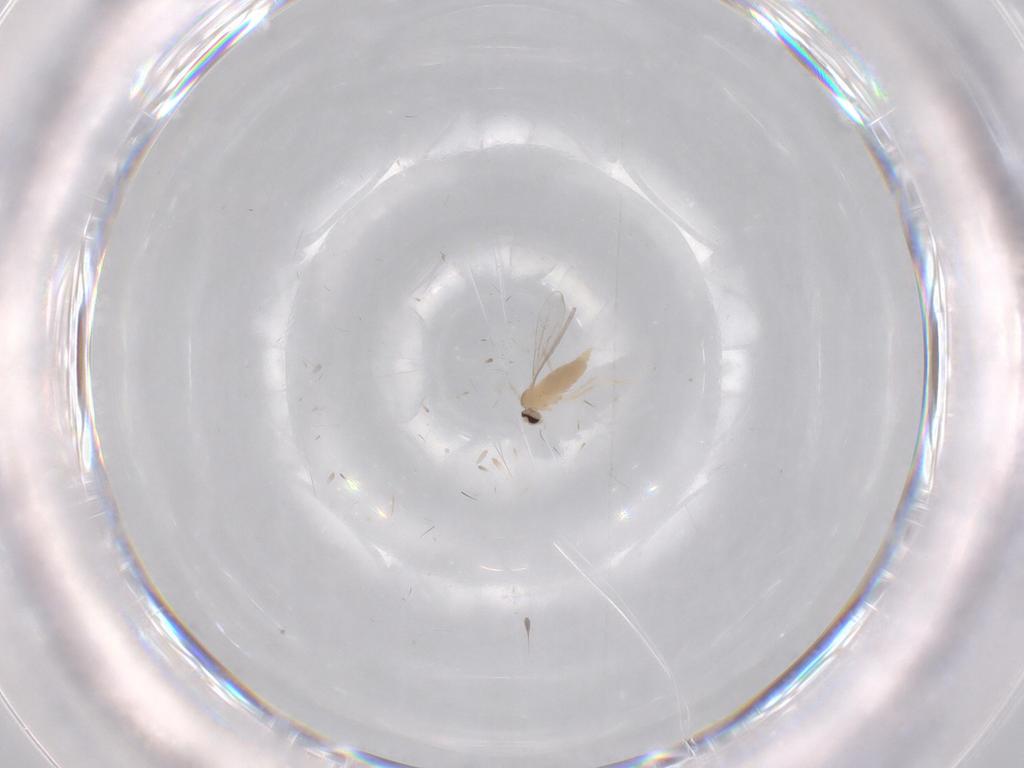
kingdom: Animalia
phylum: Arthropoda
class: Insecta
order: Diptera
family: Cecidomyiidae
